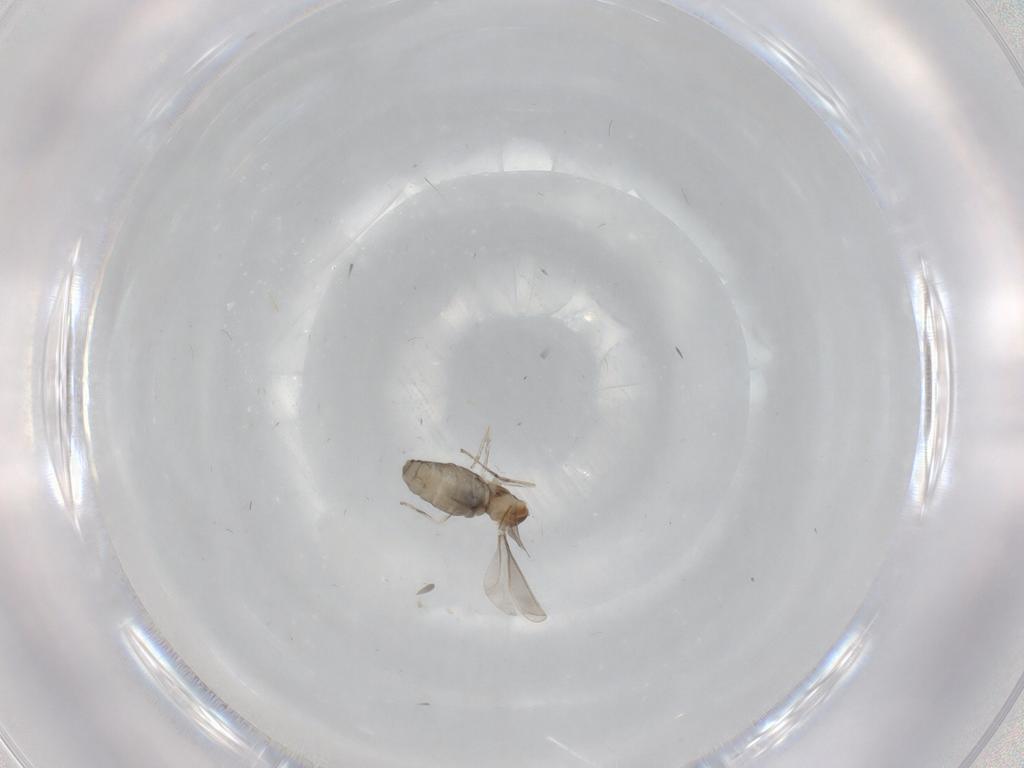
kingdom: Animalia
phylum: Arthropoda
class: Insecta
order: Diptera
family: Cecidomyiidae
